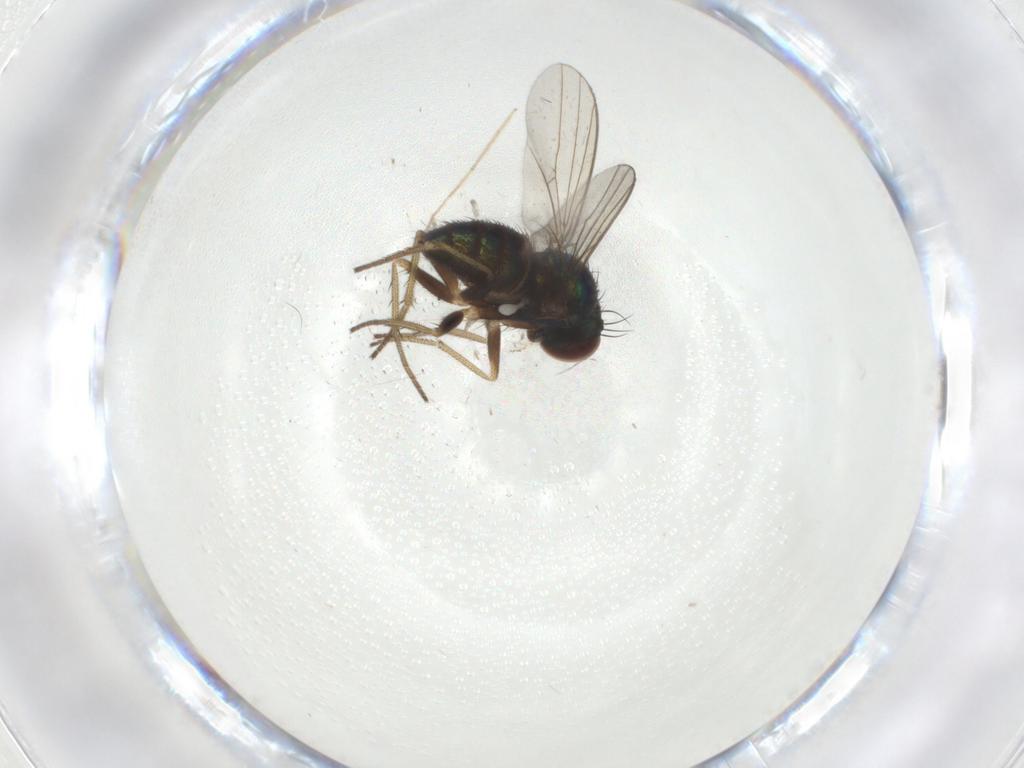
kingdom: Animalia
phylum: Arthropoda
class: Insecta
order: Diptera
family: Dolichopodidae
